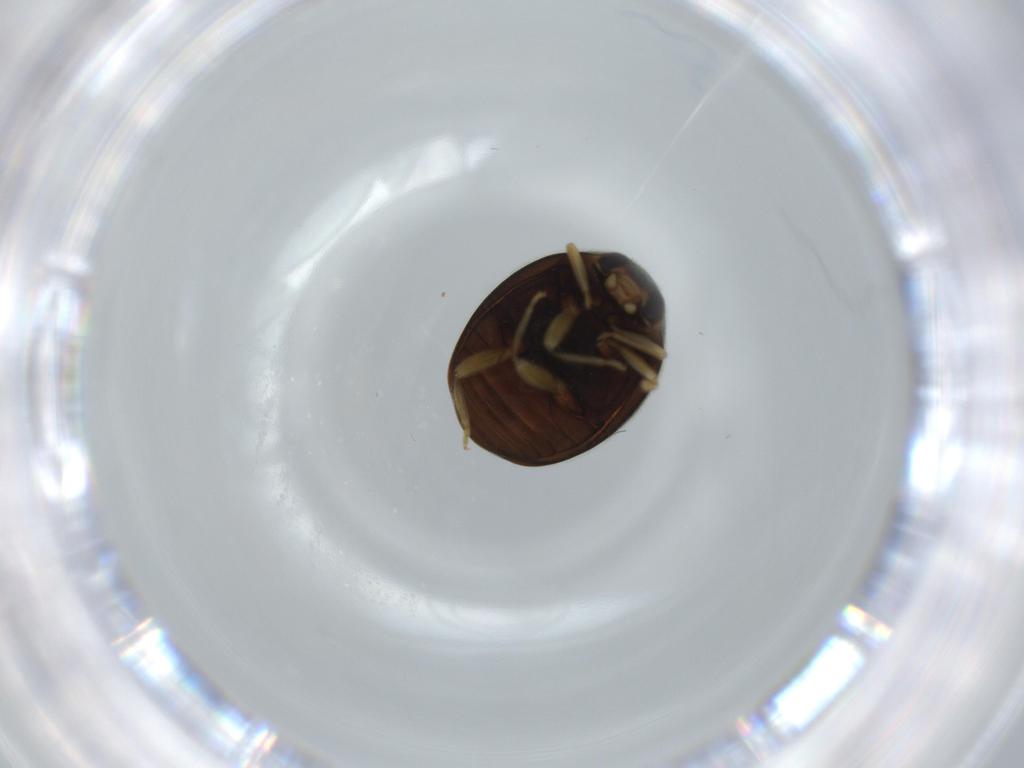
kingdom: Animalia
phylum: Arthropoda
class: Insecta
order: Coleoptera
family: Coccinellidae
